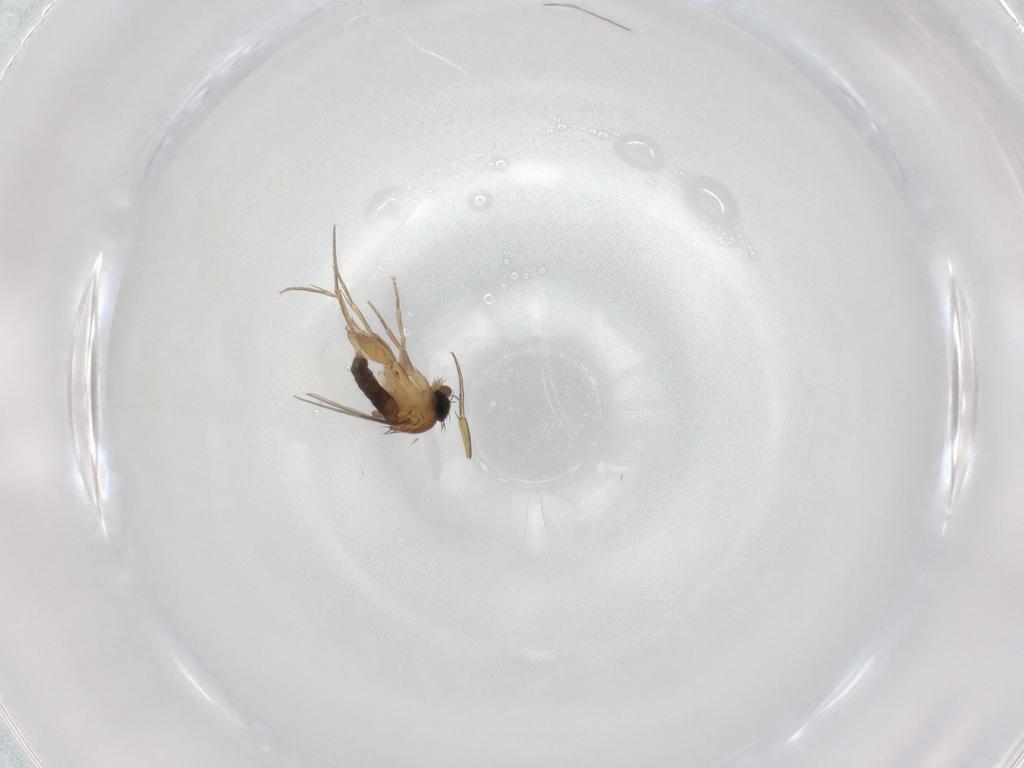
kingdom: Animalia
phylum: Arthropoda
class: Insecta
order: Diptera
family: Phoridae
